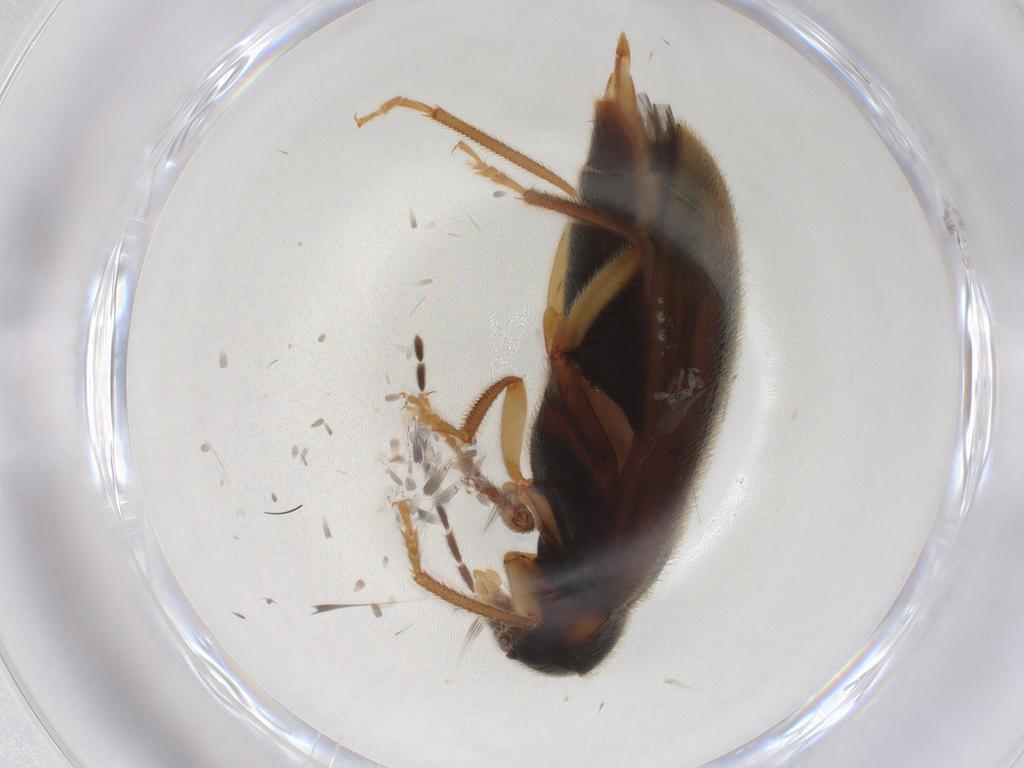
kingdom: Animalia
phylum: Arthropoda
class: Insecta
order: Coleoptera
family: Ptilodactylidae
